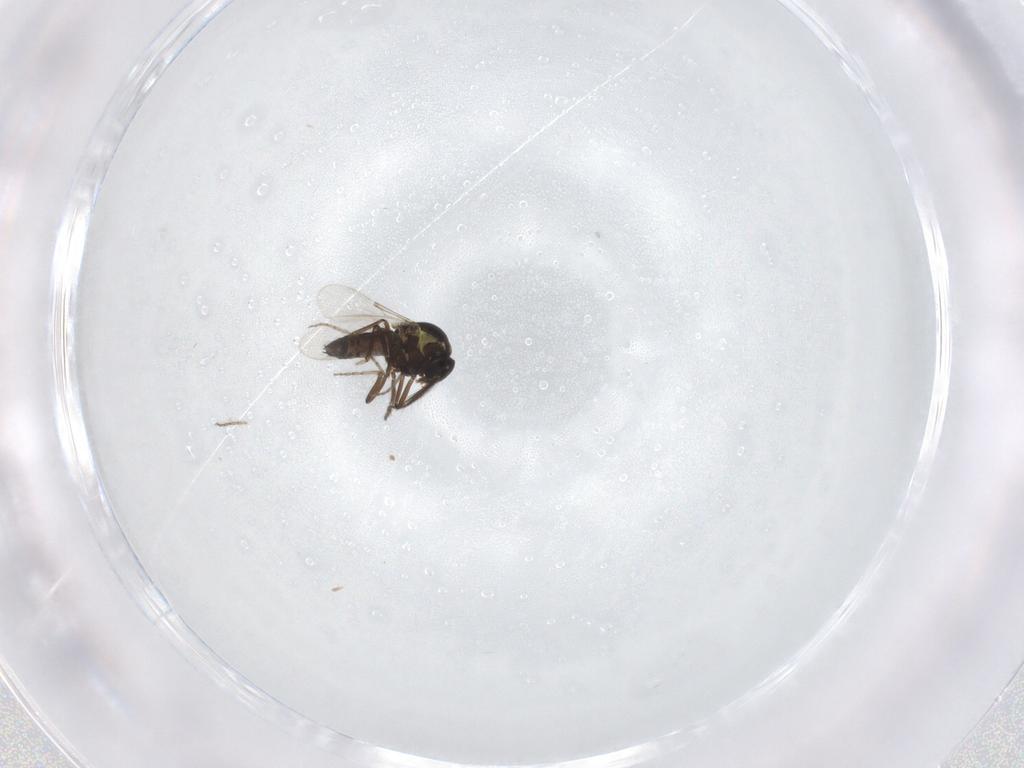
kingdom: Animalia
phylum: Arthropoda
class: Insecta
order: Diptera
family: Ceratopogonidae
